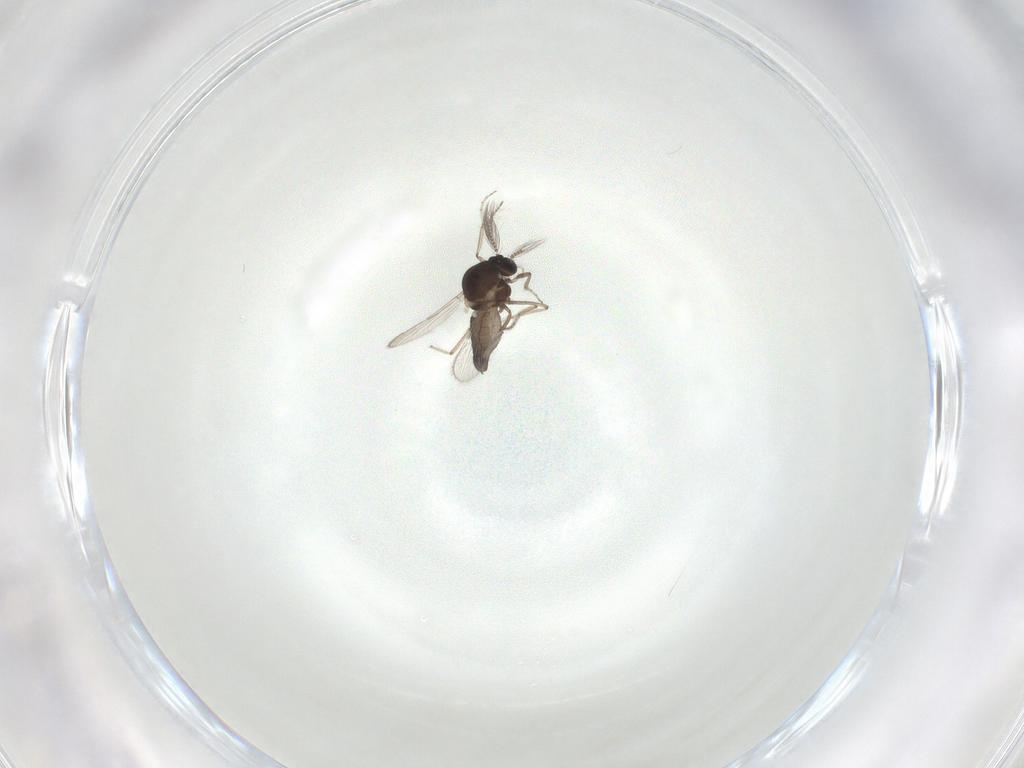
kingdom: Animalia
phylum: Arthropoda
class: Insecta
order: Diptera
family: Ceratopogonidae
